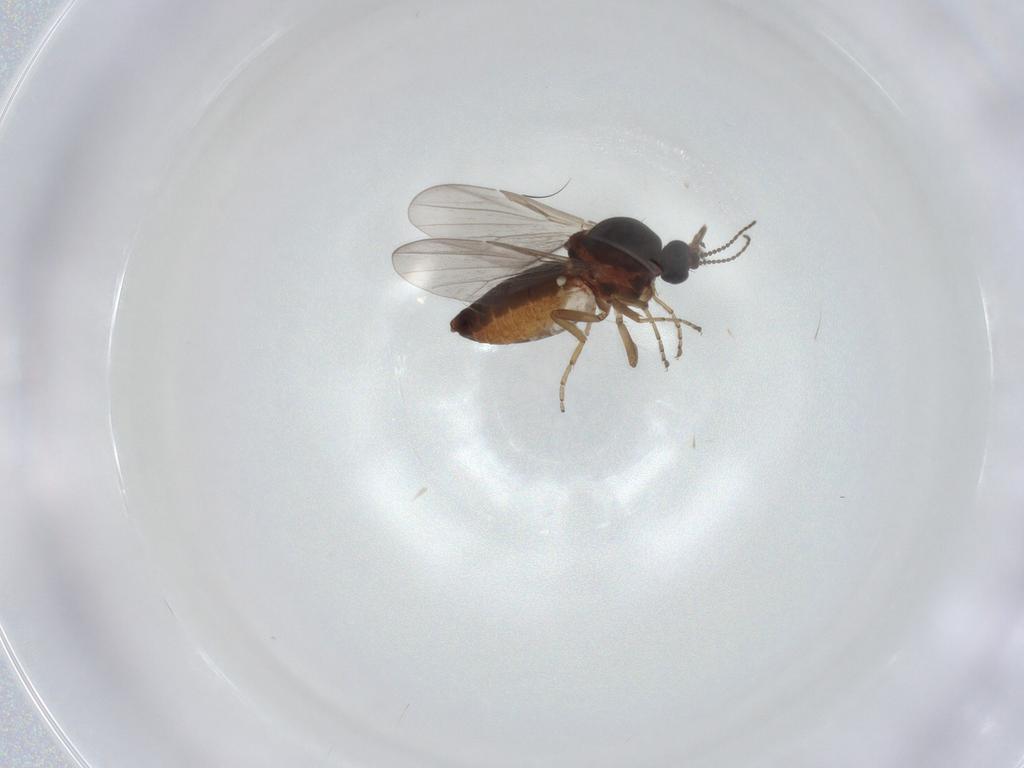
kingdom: Animalia
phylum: Arthropoda
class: Insecta
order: Diptera
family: Ceratopogonidae
